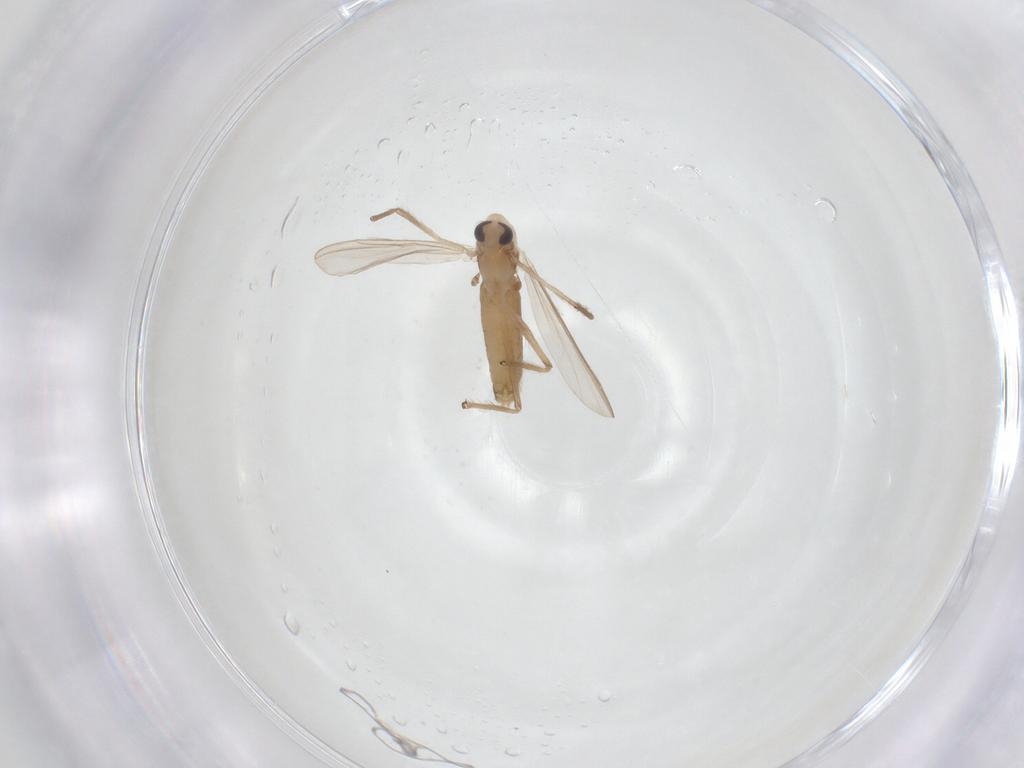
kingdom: Animalia
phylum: Arthropoda
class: Insecta
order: Diptera
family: Chironomidae
